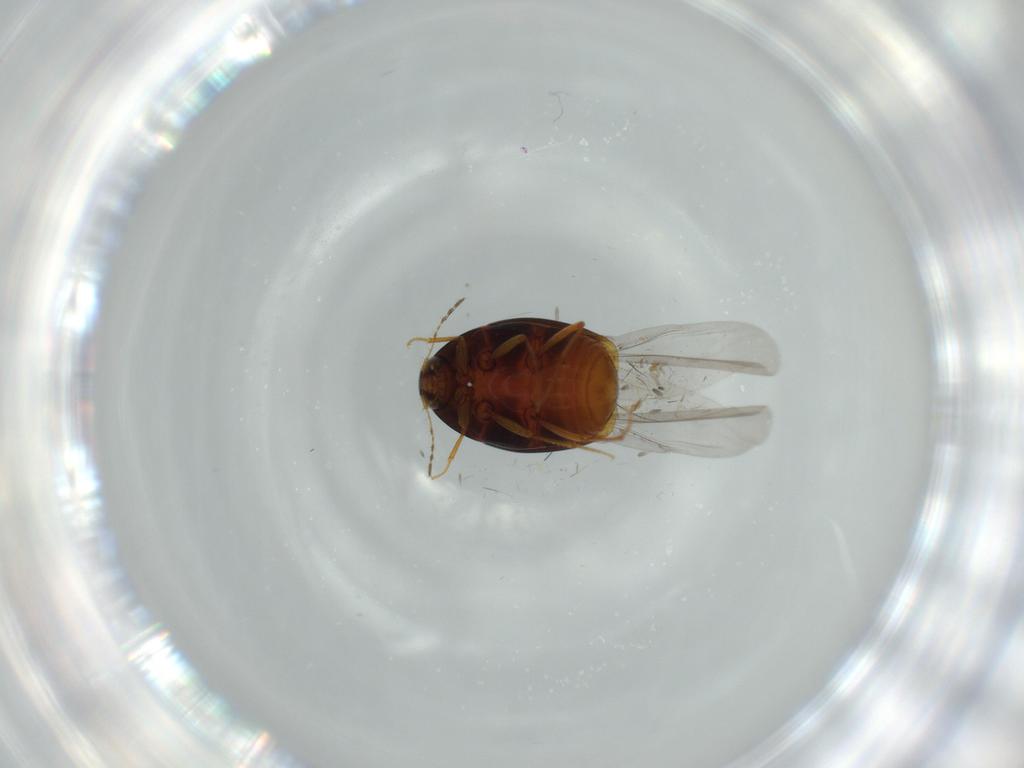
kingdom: Animalia
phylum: Arthropoda
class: Insecta
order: Coleoptera
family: Staphylinidae
